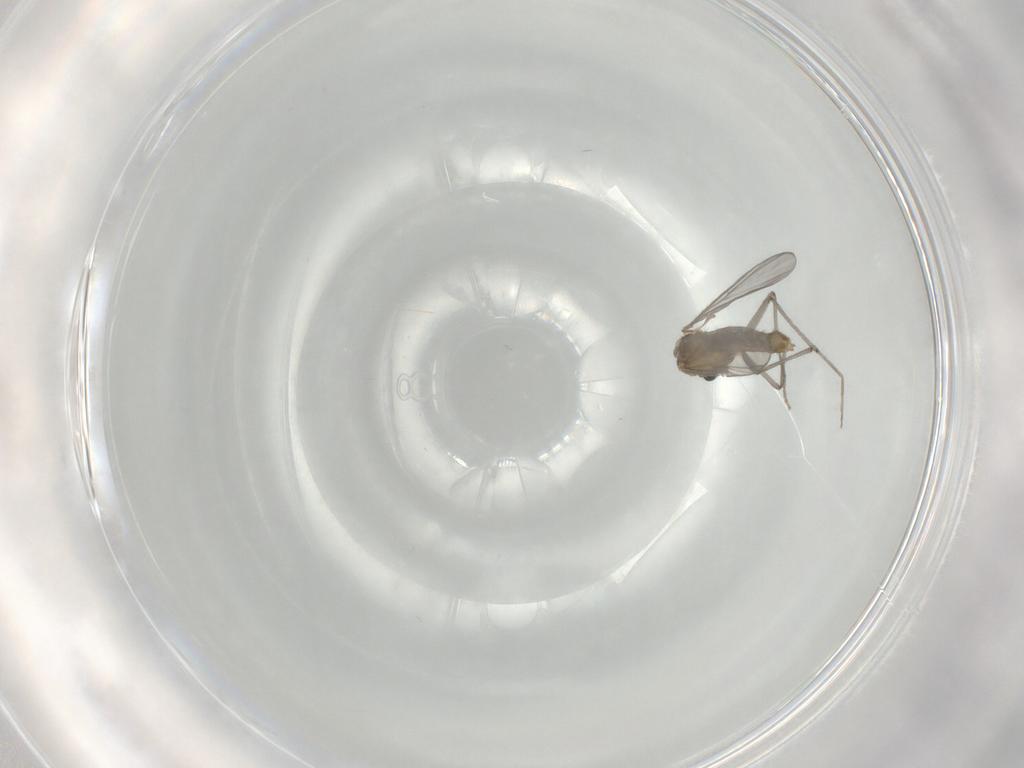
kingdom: Animalia
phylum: Arthropoda
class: Insecta
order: Diptera
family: Chironomidae
